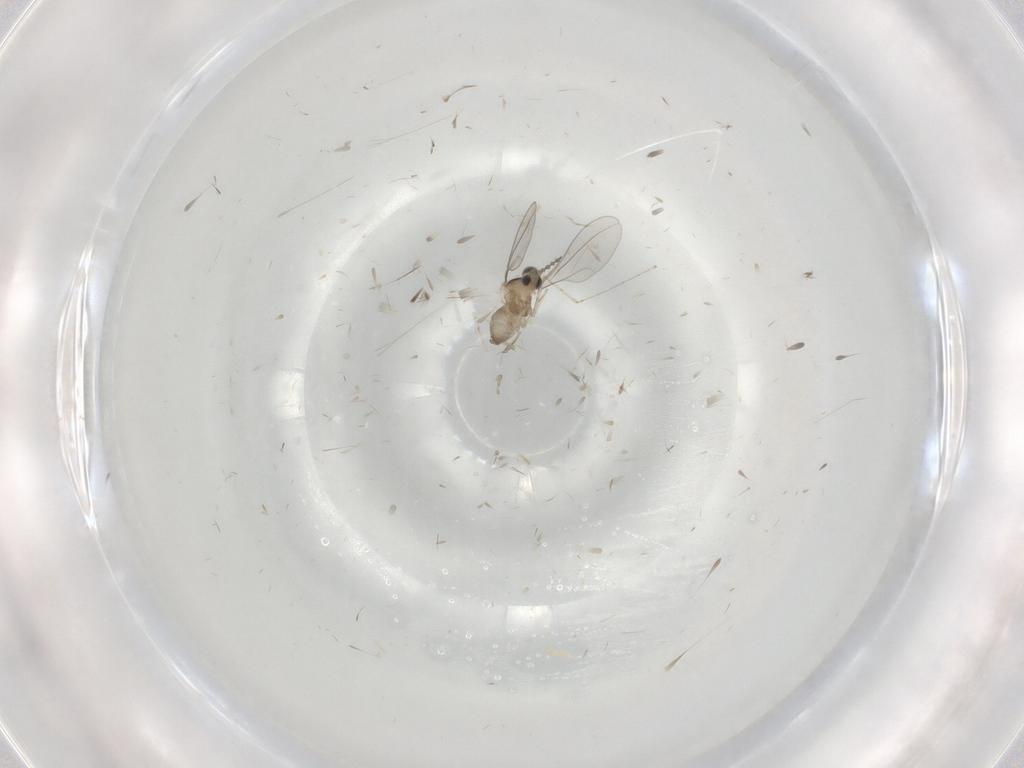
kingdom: Animalia
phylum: Arthropoda
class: Insecta
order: Diptera
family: Cecidomyiidae
